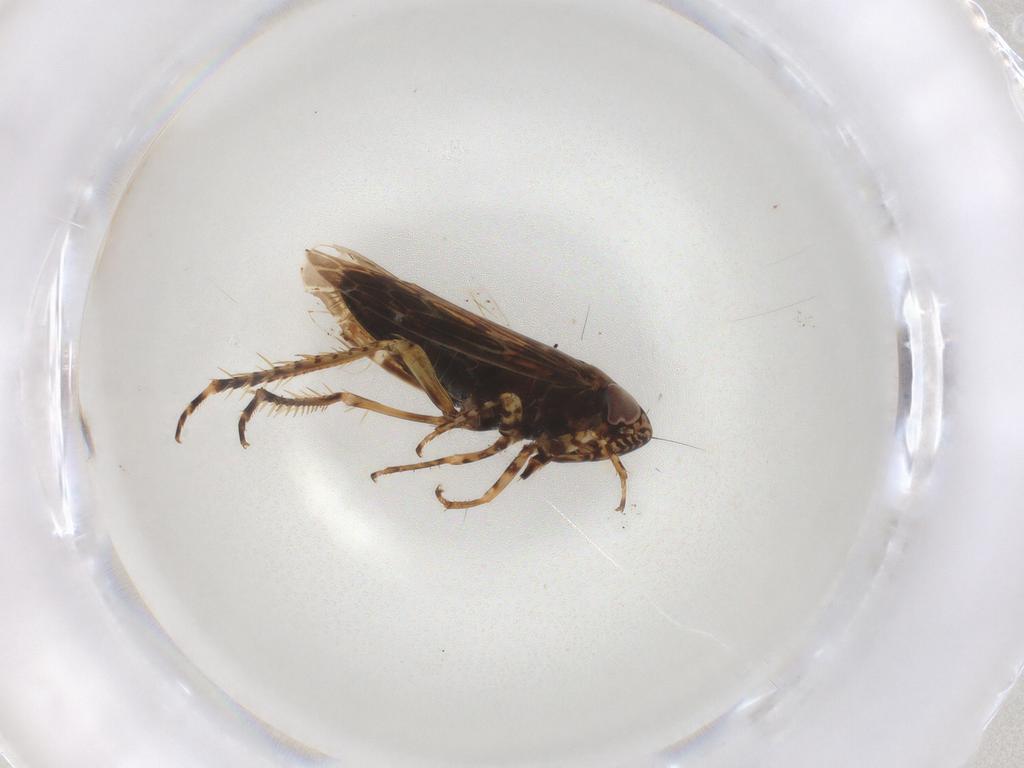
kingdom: Animalia
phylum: Arthropoda
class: Insecta
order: Hemiptera
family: Cicadellidae
